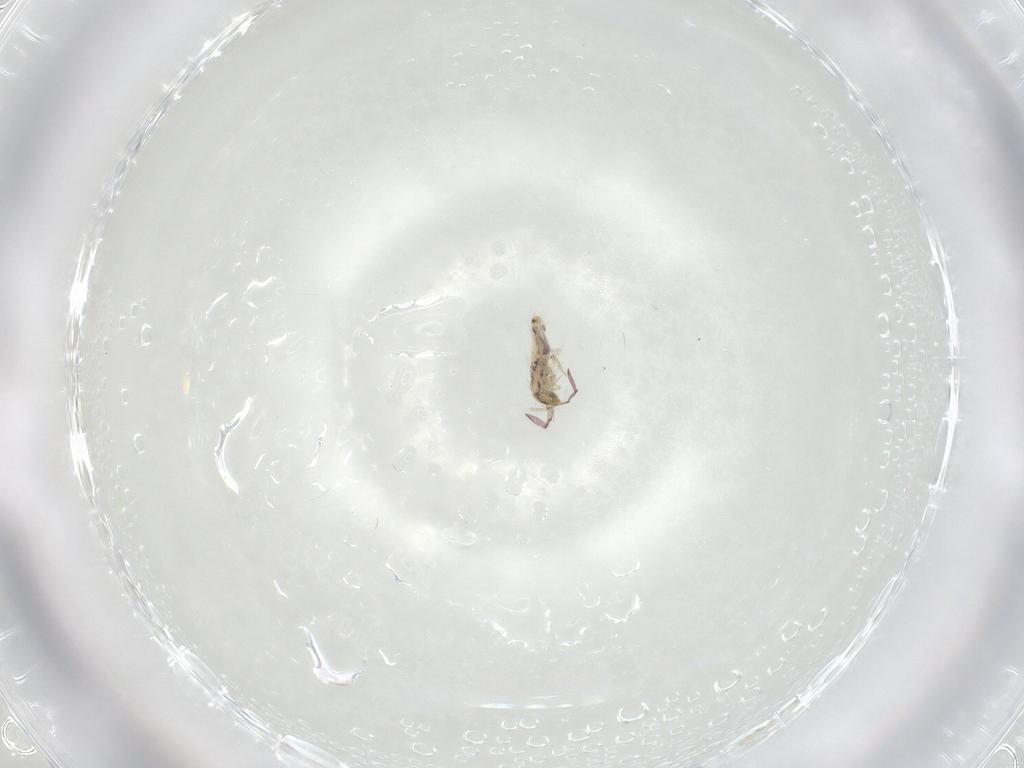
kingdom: Animalia
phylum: Arthropoda
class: Collembola
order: Entomobryomorpha
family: Entomobryidae
